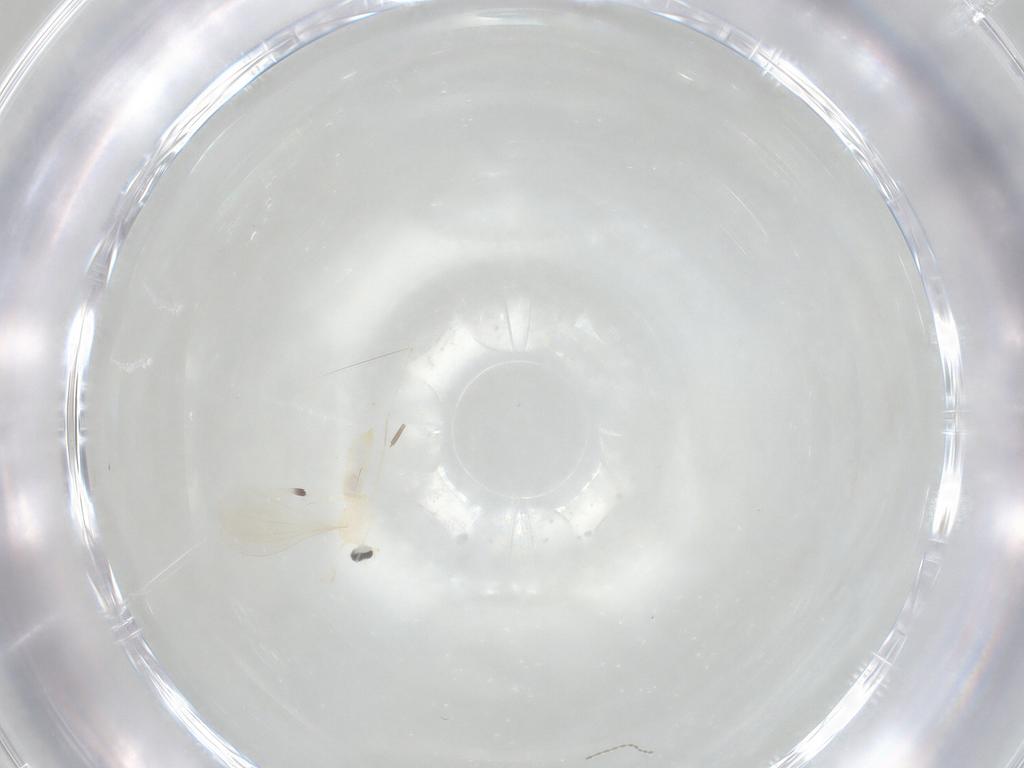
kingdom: Animalia
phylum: Arthropoda
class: Insecta
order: Diptera
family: Cecidomyiidae
